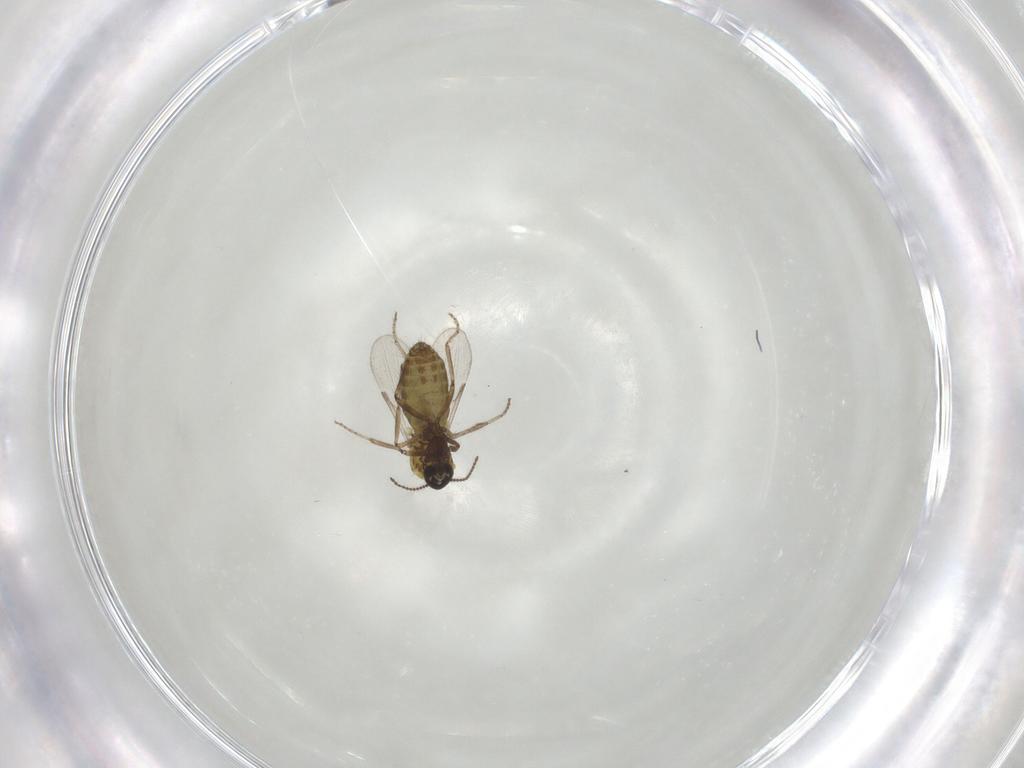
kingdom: Animalia
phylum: Arthropoda
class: Insecta
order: Diptera
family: Ceratopogonidae
